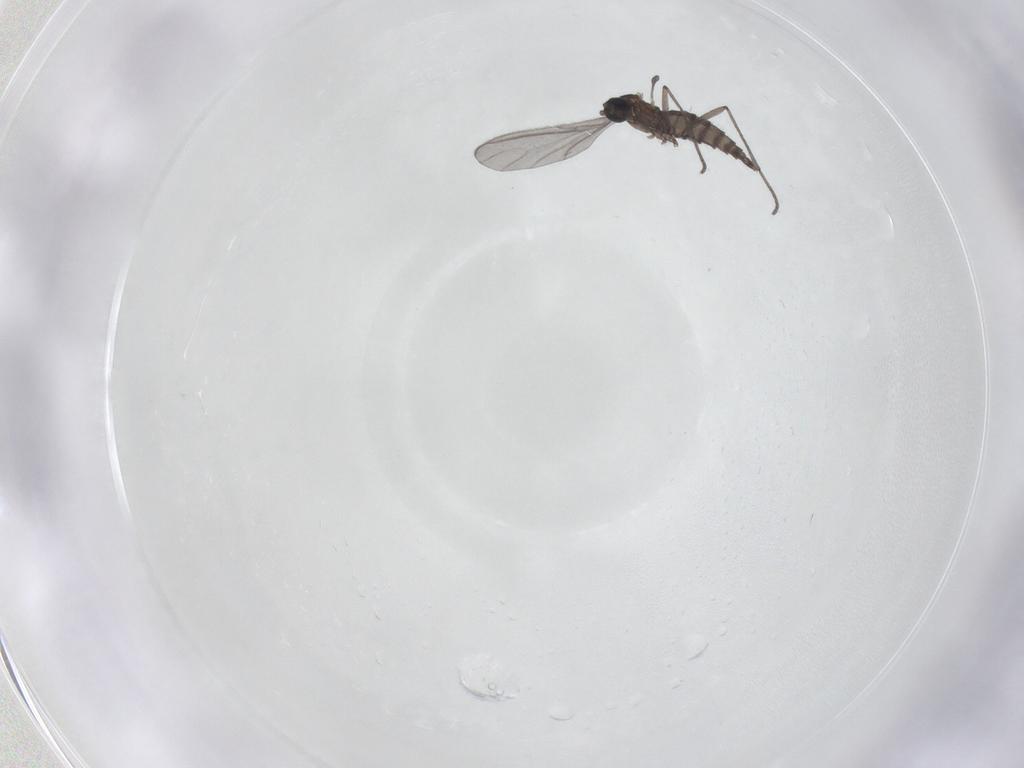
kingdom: Animalia
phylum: Arthropoda
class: Insecta
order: Diptera
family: Sciaridae
